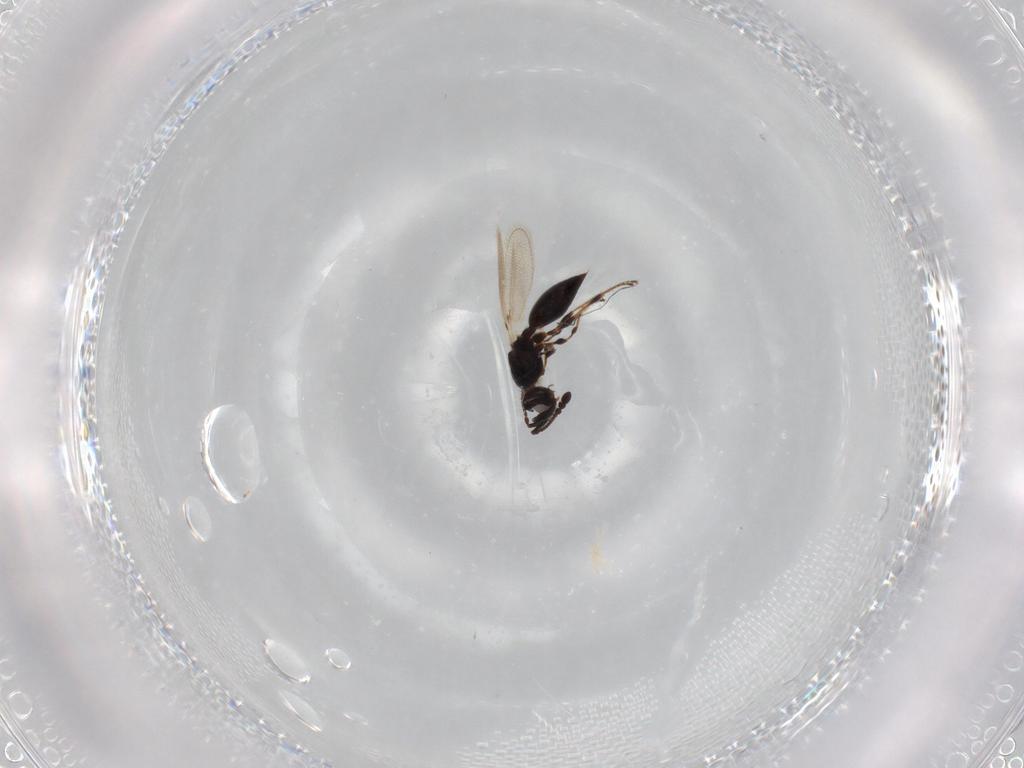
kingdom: Animalia
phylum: Arthropoda
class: Insecta
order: Hymenoptera
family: Diapriidae
